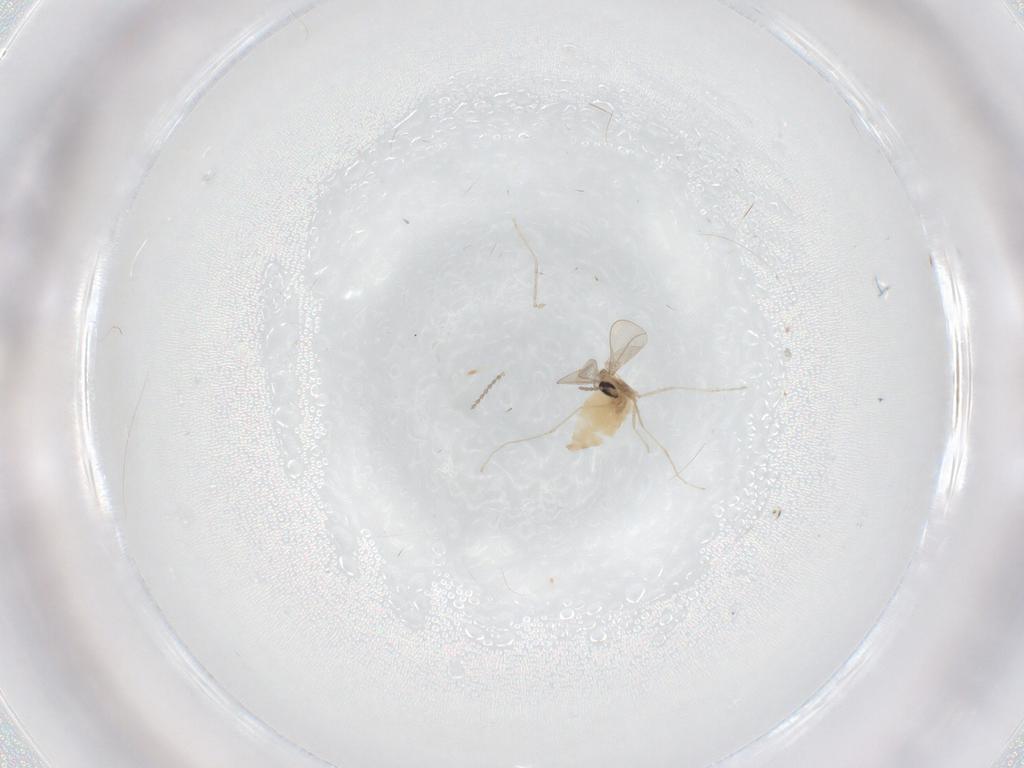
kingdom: Animalia
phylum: Arthropoda
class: Insecta
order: Diptera
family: Cecidomyiidae
